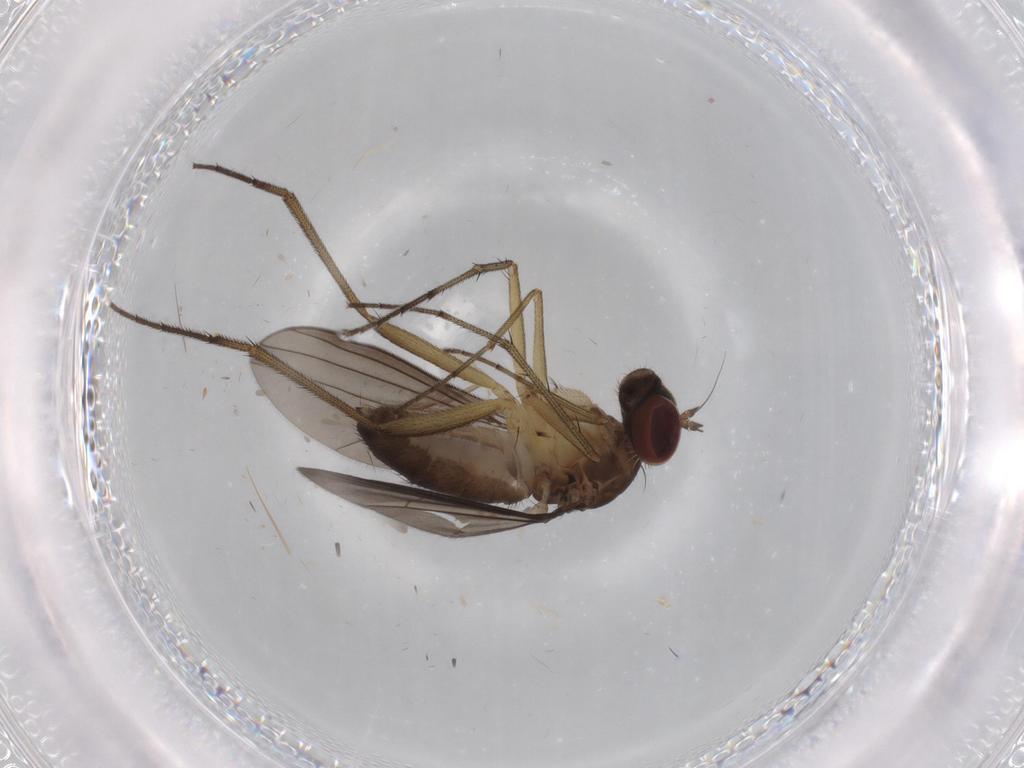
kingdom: Animalia
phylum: Arthropoda
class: Insecta
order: Diptera
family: Dolichopodidae
